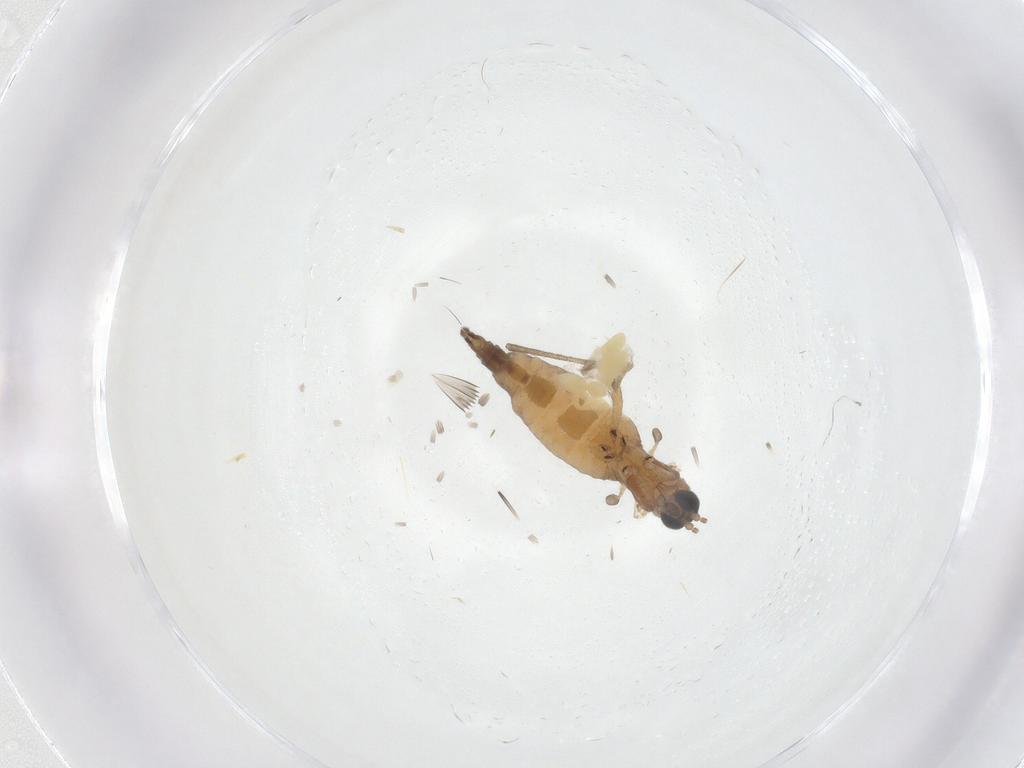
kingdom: Animalia
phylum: Arthropoda
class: Insecta
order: Diptera
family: Sciaridae
